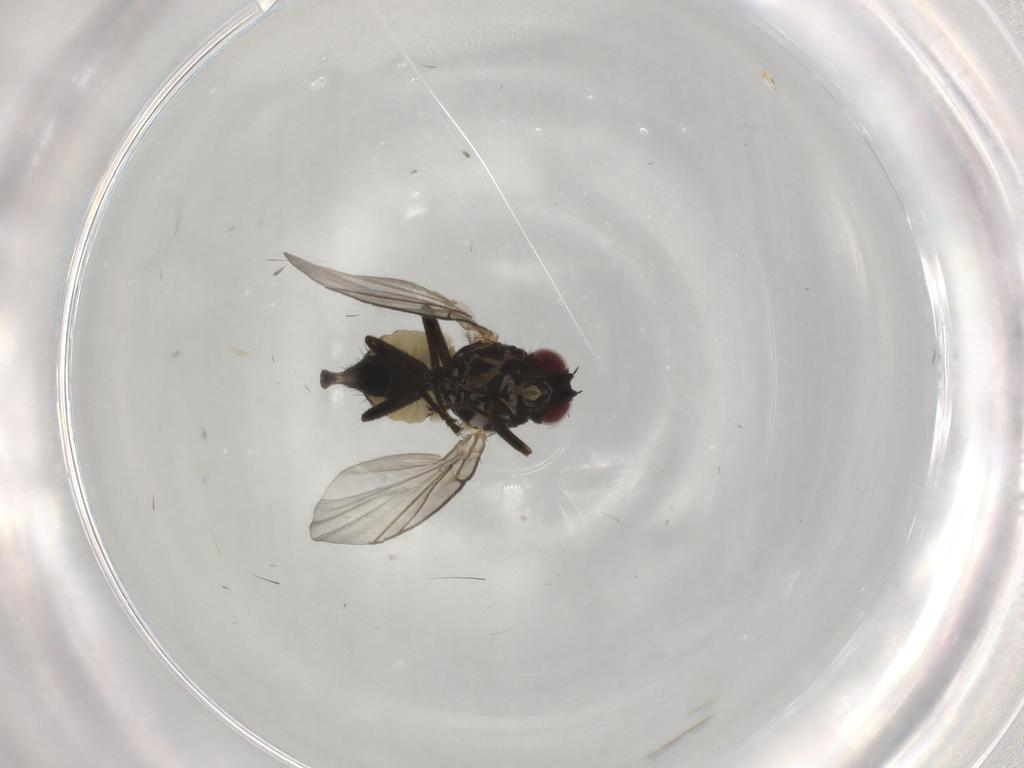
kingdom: Animalia
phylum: Arthropoda
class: Insecta
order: Diptera
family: Agromyzidae
